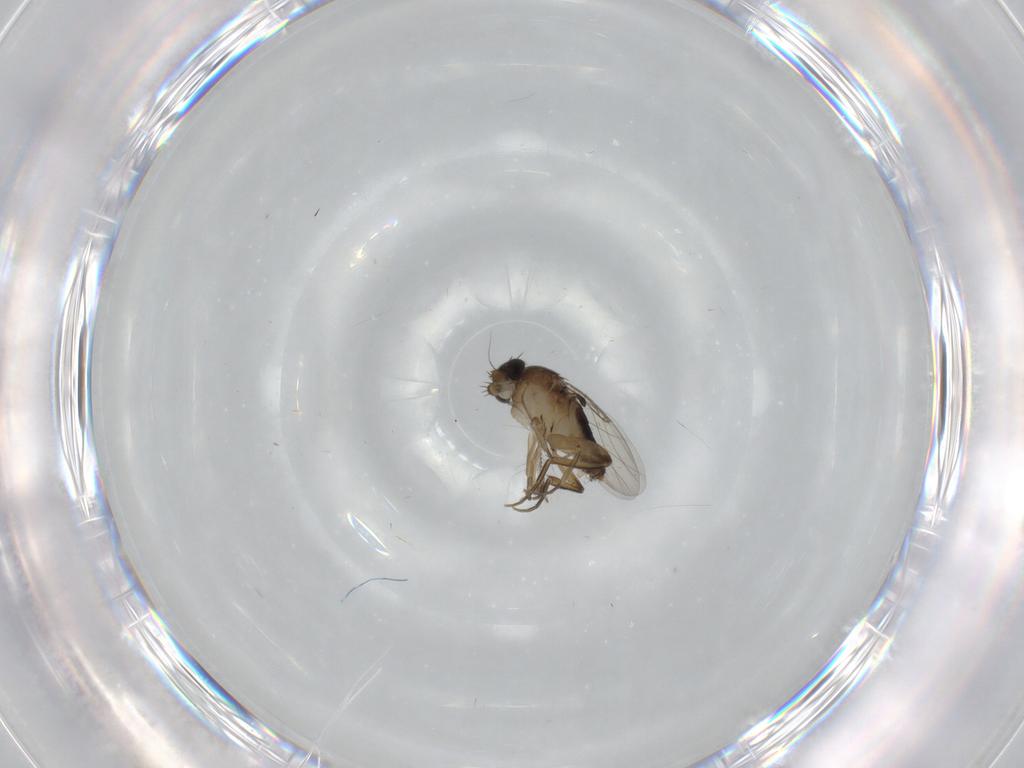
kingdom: Animalia
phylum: Arthropoda
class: Insecta
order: Diptera
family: Phoridae
